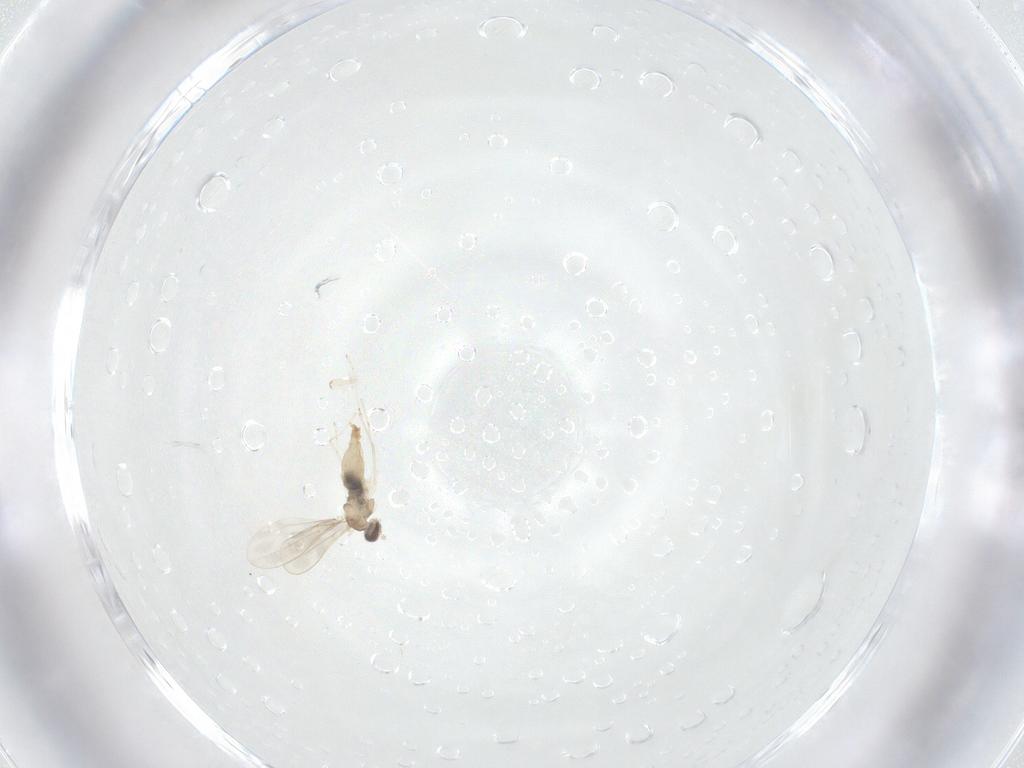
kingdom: Animalia
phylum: Arthropoda
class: Insecta
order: Diptera
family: Cecidomyiidae
